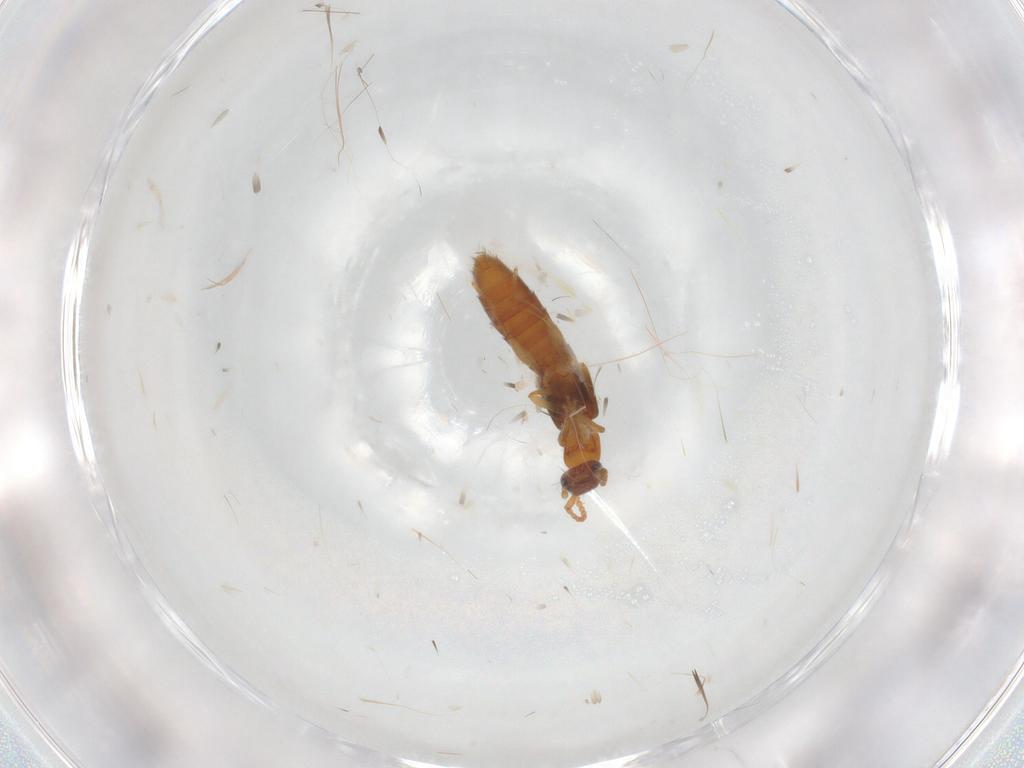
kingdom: Animalia
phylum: Arthropoda
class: Insecta
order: Coleoptera
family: Staphylinidae
